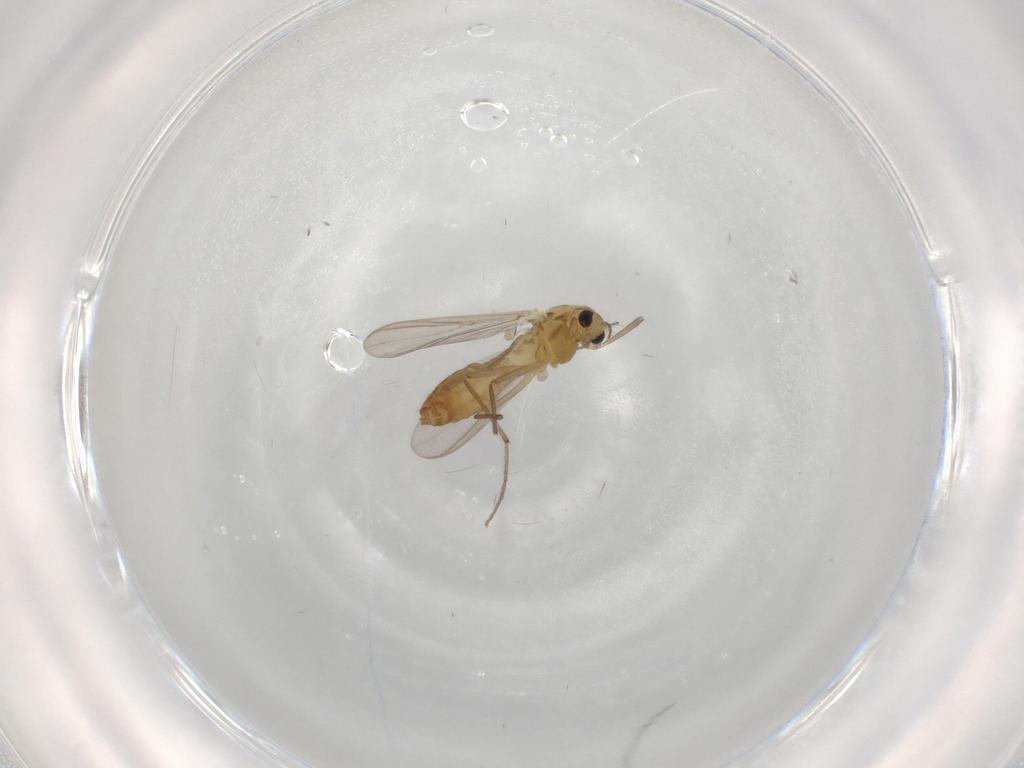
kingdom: Animalia
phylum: Arthropoda
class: Insecta
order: Diptera
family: Chironomidae
